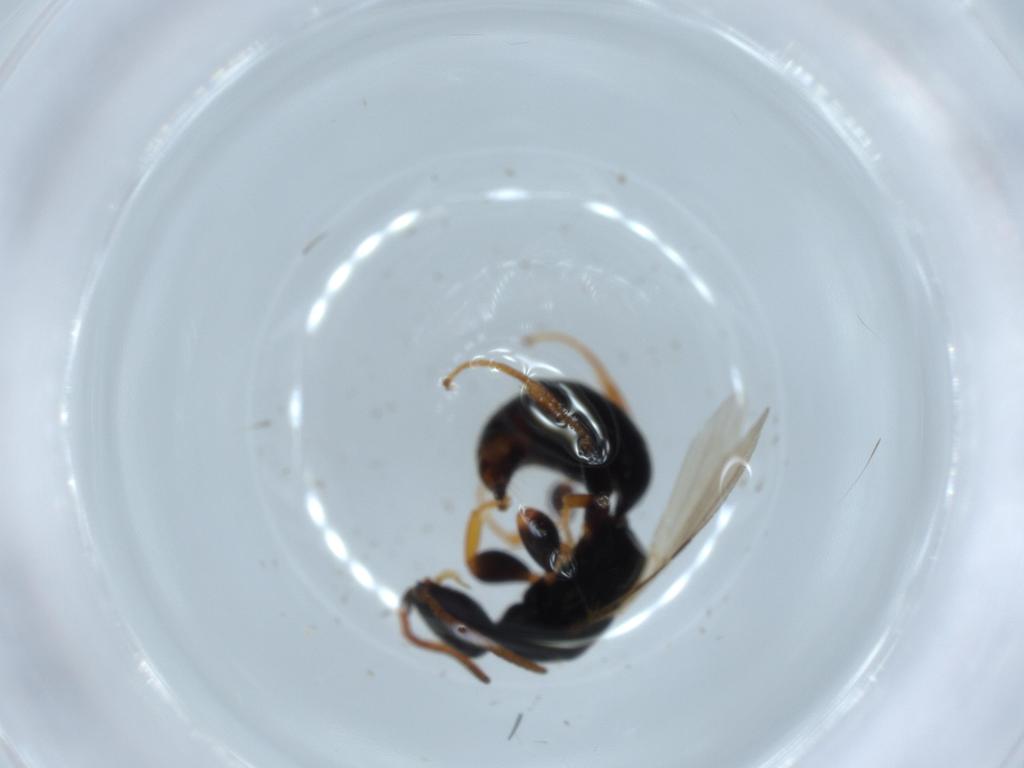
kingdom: Animalia
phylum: Arthropoda
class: Insecta
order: Hymenoptera
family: Bethylidae
